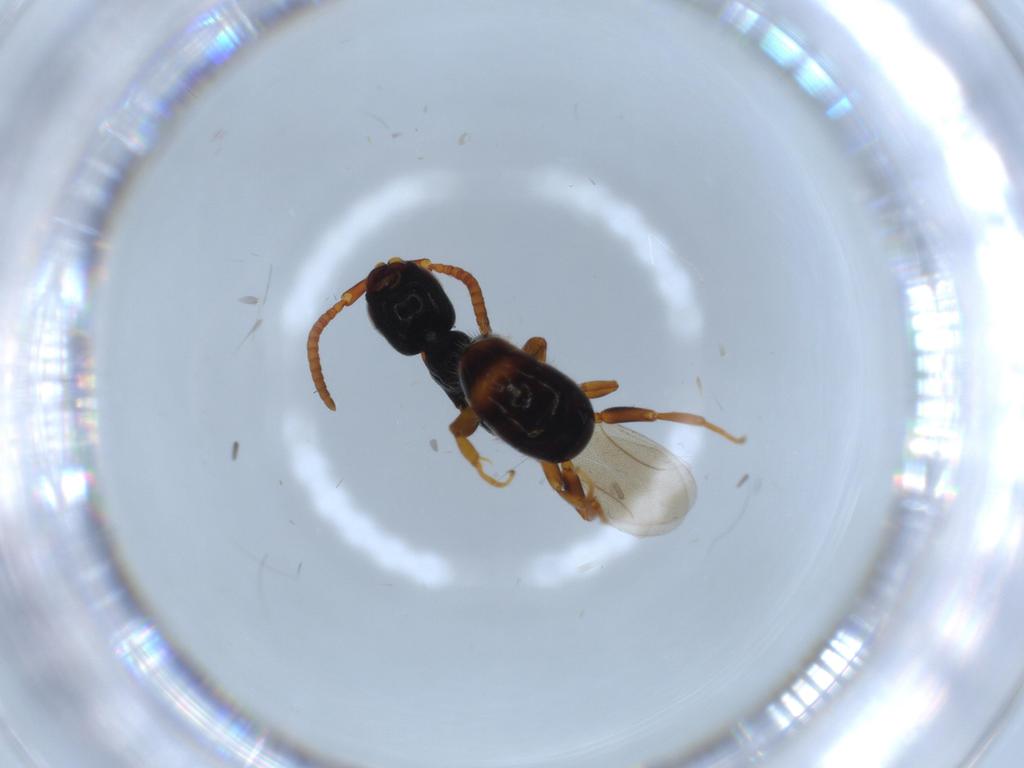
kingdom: Animalia
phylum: Arthropoda
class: Insecta
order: Hymenoptera
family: Bethylidae
